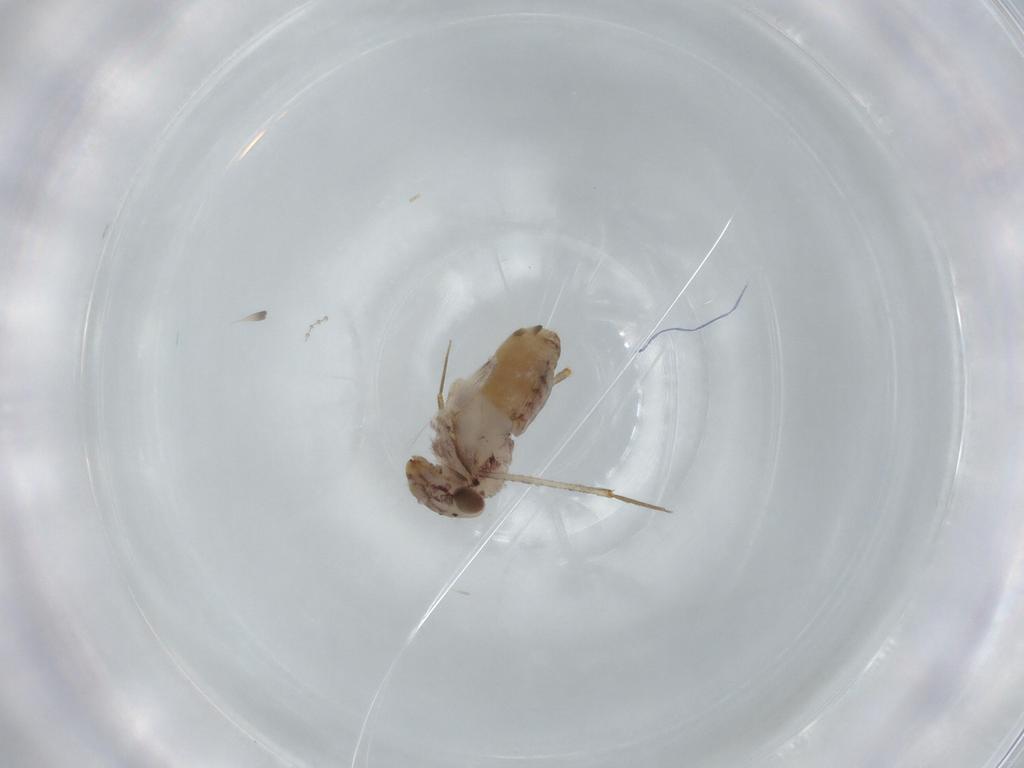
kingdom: Animalia
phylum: Arthropoda
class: Insecta
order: Psocodea
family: Lepidopsocidae
